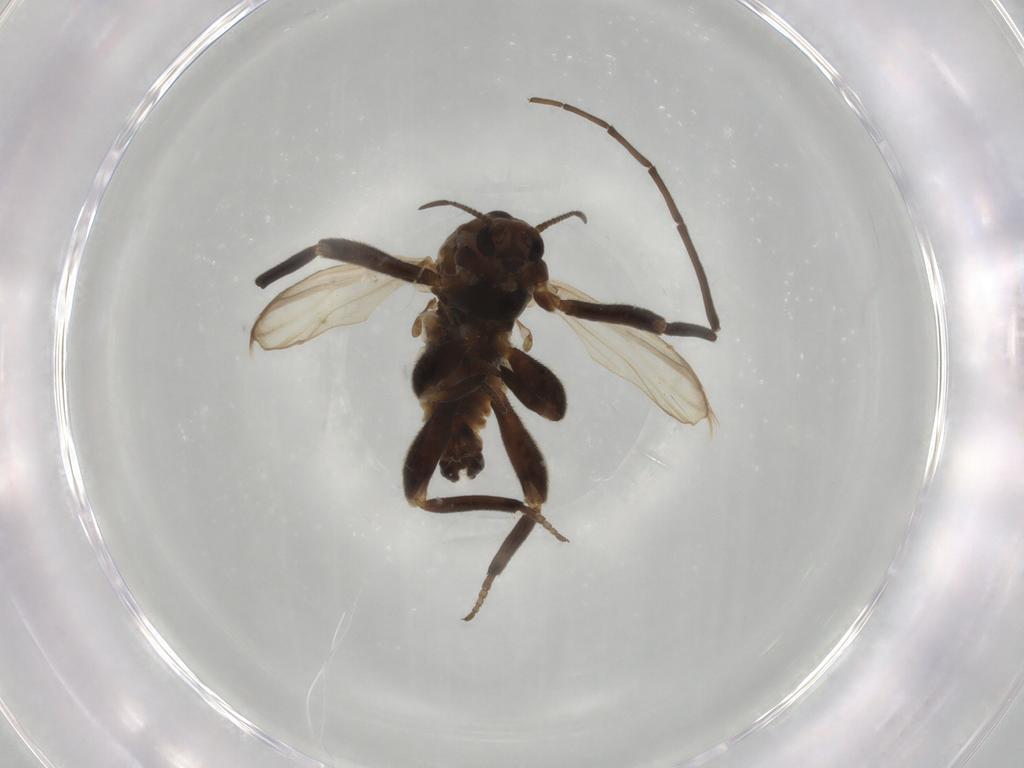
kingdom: Animalia
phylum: Arthropoda
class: Insecta
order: Diptera
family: Chironomidae
